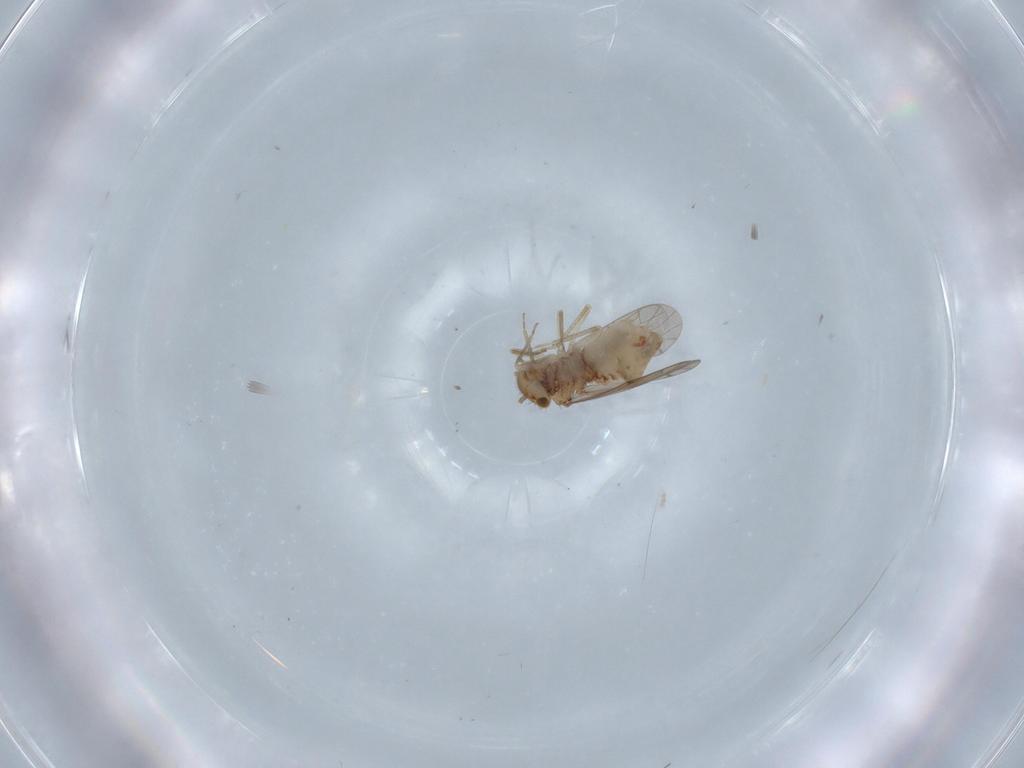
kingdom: Animalia
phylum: Arthropoda
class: Insecta
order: Psocodea
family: Ectopsocidae
